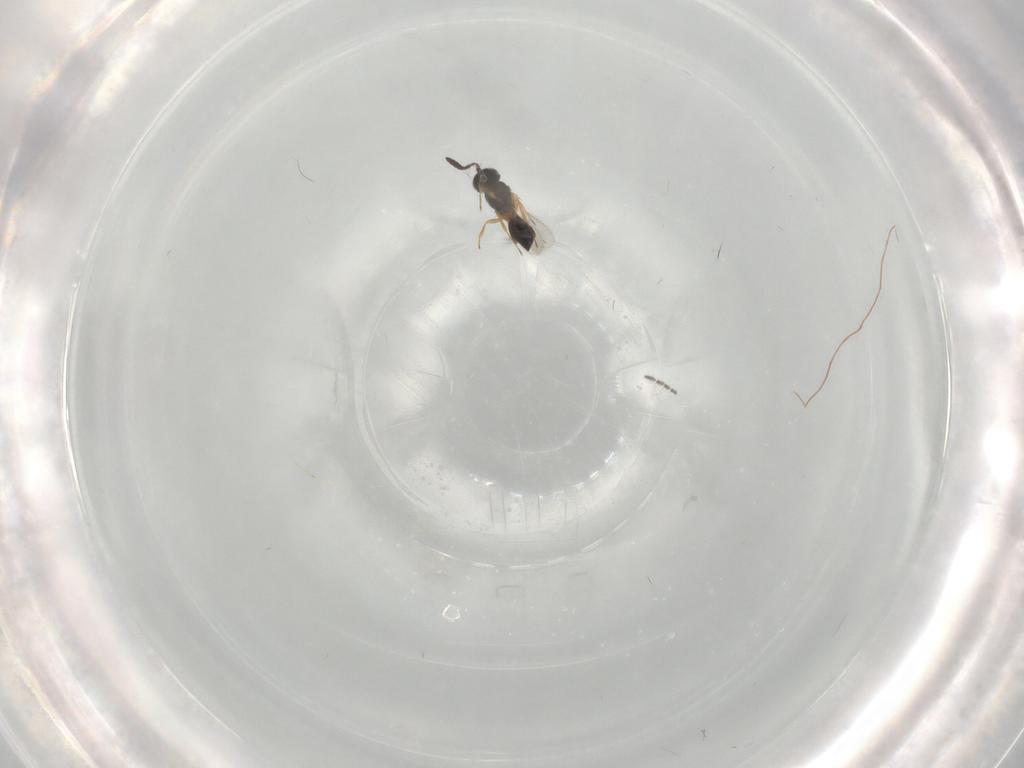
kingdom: Animalia
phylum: Arthropoda
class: Insecta
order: Hymenoptera
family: Scelionidae
